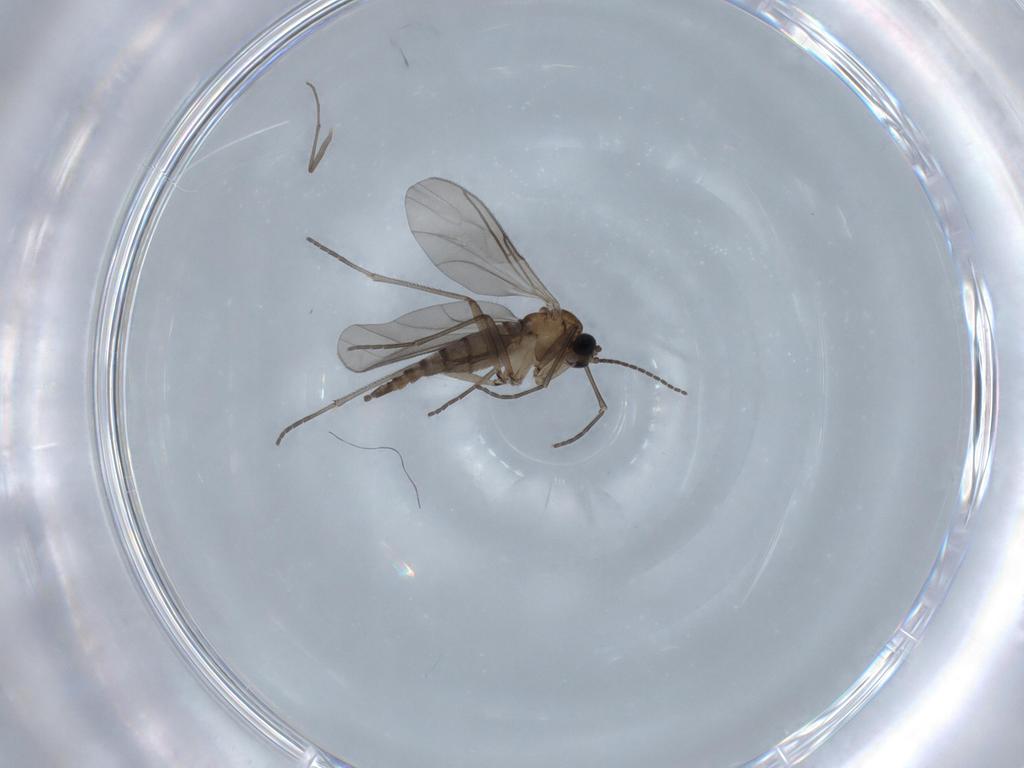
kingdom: Animalia
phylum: Arthropoda
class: Insecta
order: Diptera
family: Sciaridae
